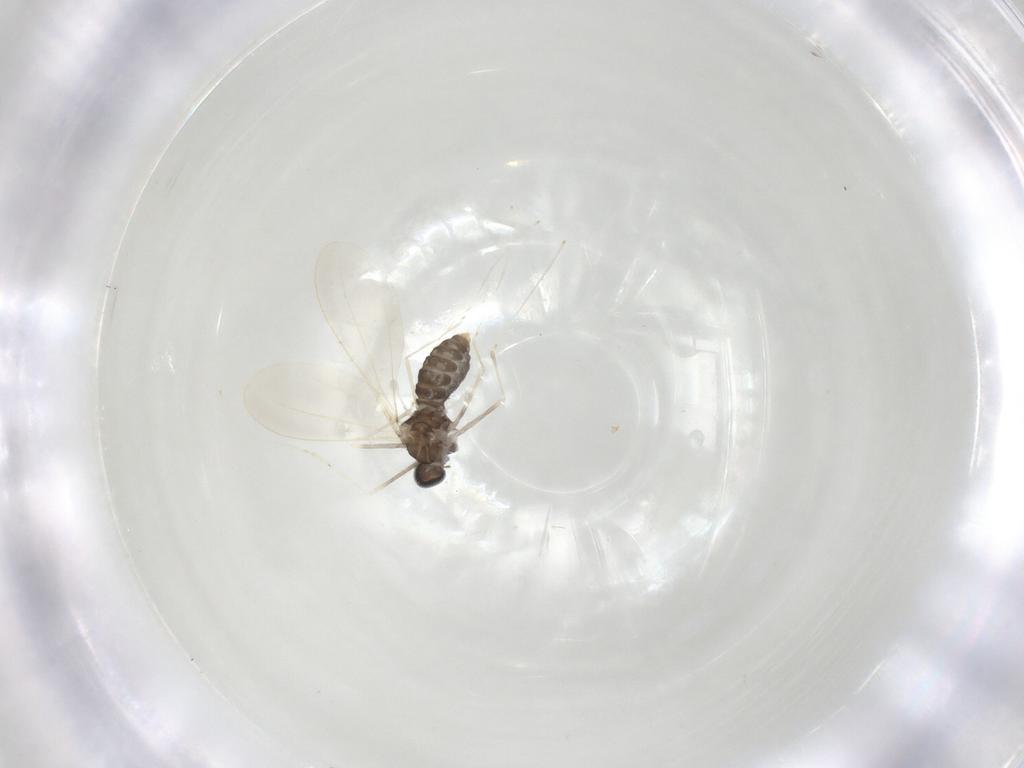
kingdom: Animalia
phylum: Arthropoda
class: Insecta
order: Diptera
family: Cecidomyiidae
